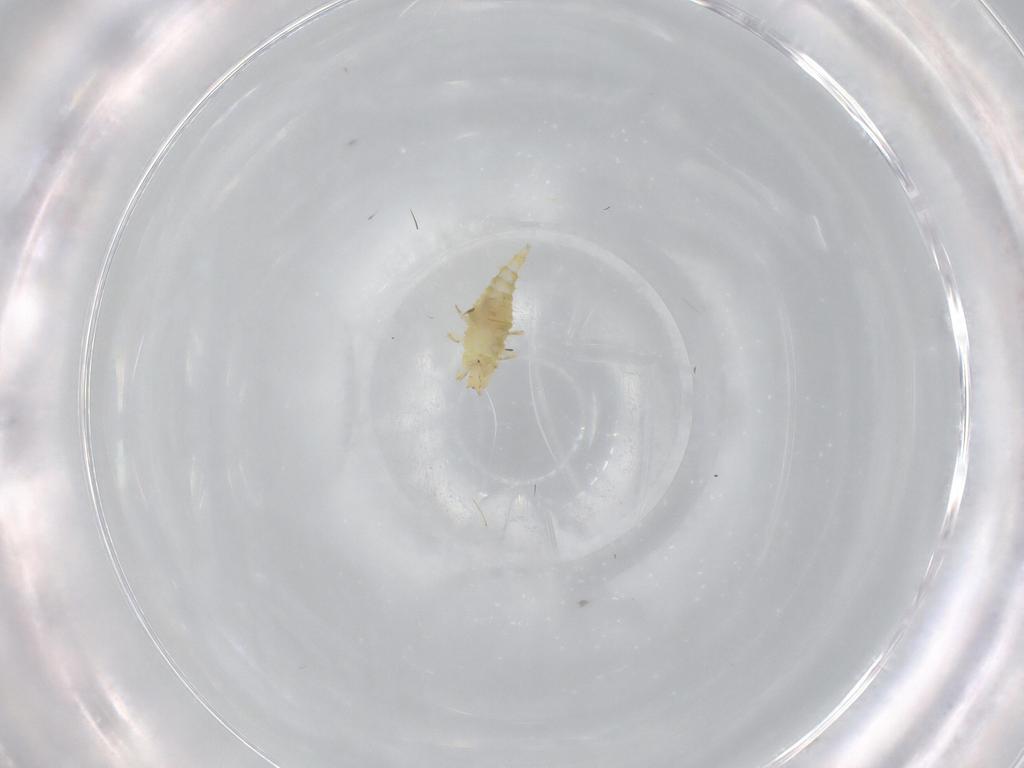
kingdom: Animalia
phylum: Arthropoda
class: Insecta
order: Thysanoptera
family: Phlaeothripidae
